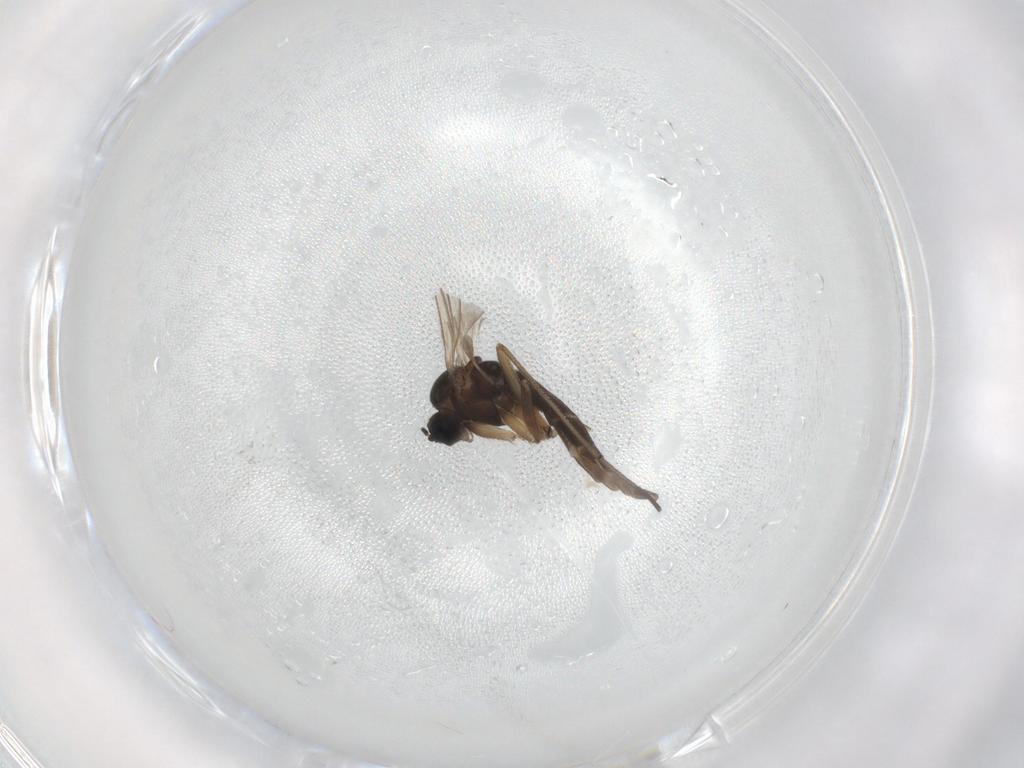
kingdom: Animalia
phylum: Arthropoda
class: Insecta
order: Diptera
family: Sciaridae
